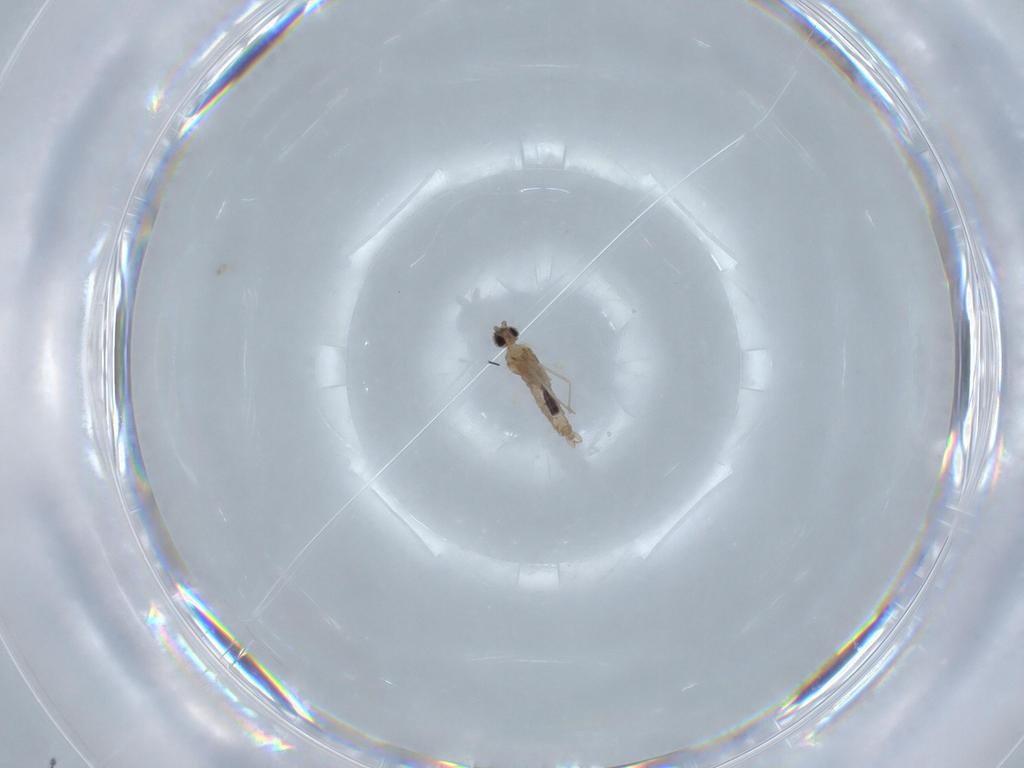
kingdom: Animalia
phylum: Arthropoda
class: Insecta
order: Diptera
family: Cecidomyiidae
